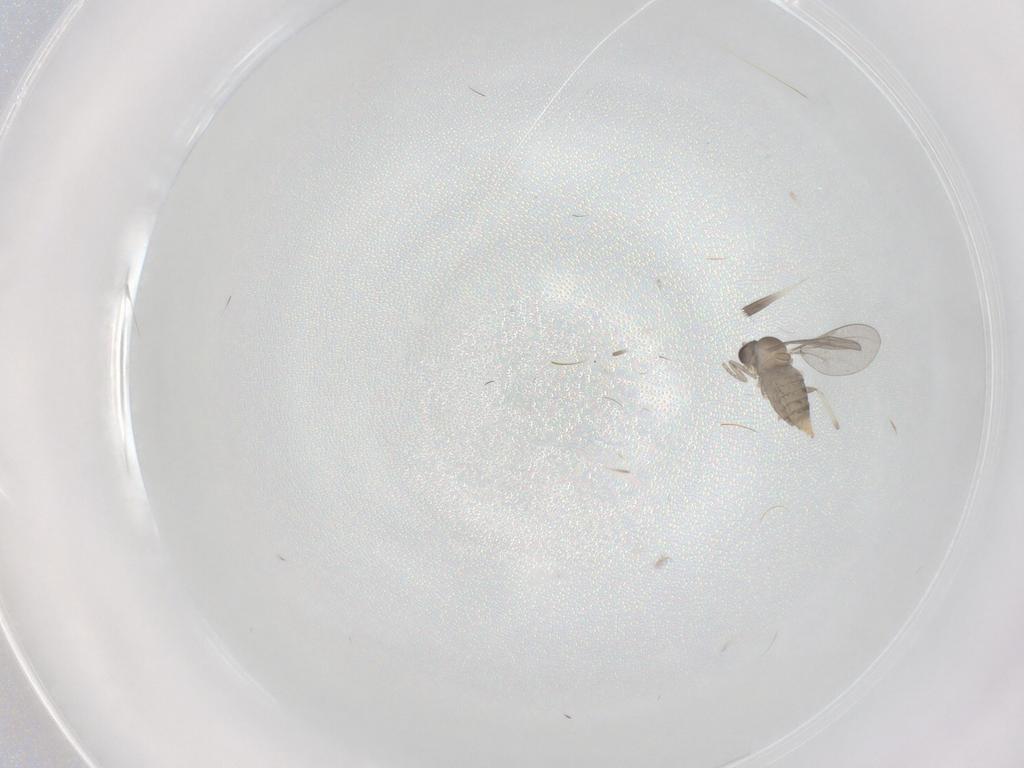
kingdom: Animalia
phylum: Arthropoda
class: Insecta
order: Diptera
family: Cecidomyiidae
